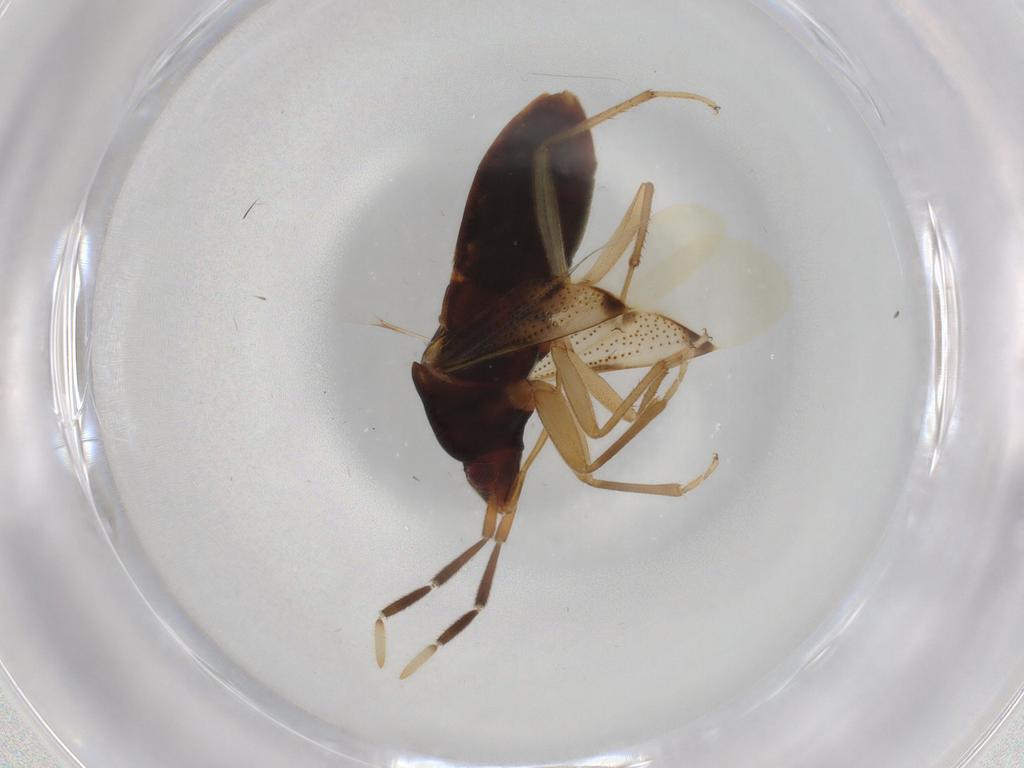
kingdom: Animalia
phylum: Arthropoda
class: Insecta
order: Hemiptera
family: Rhyparochromidae
